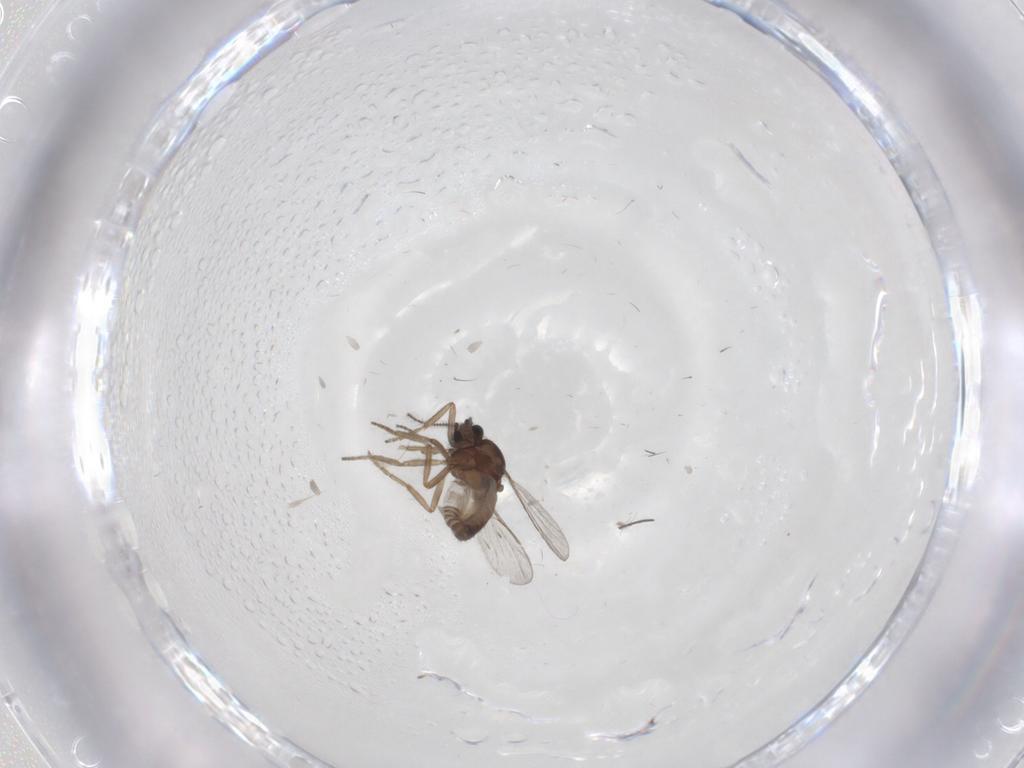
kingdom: Animalia
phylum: Arthropoda
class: Insecta
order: Diptera
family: Ceratopogonidae
